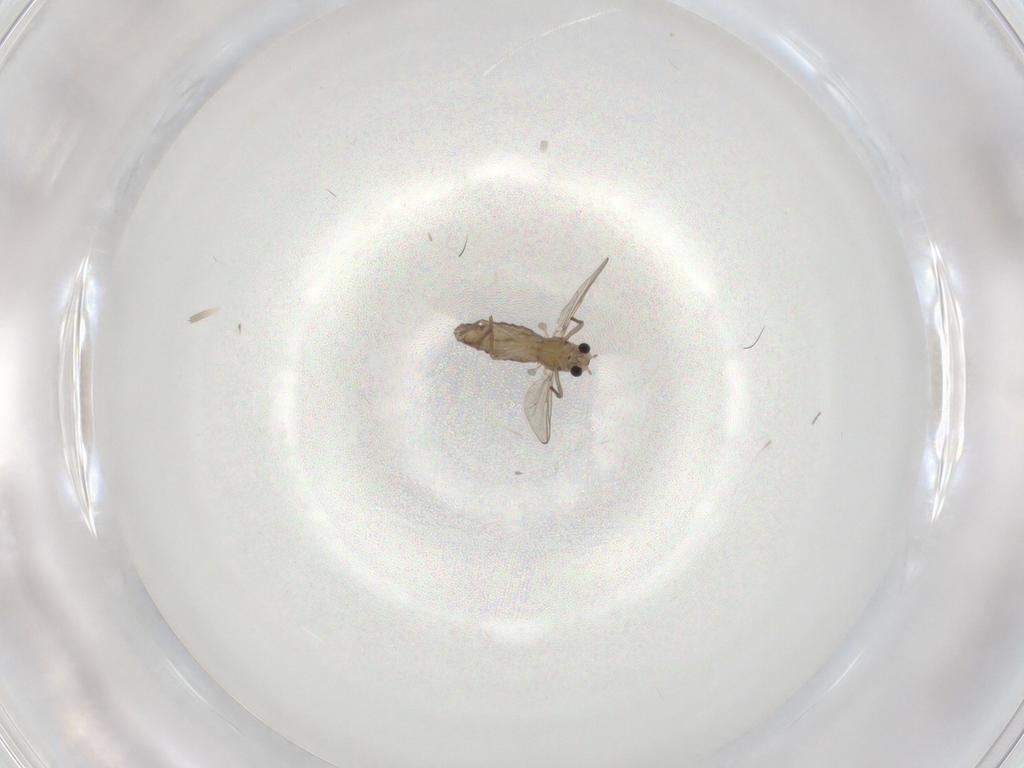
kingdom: Animalia
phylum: Arthropoda
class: Insecta
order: Diptera
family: Chironomidae
